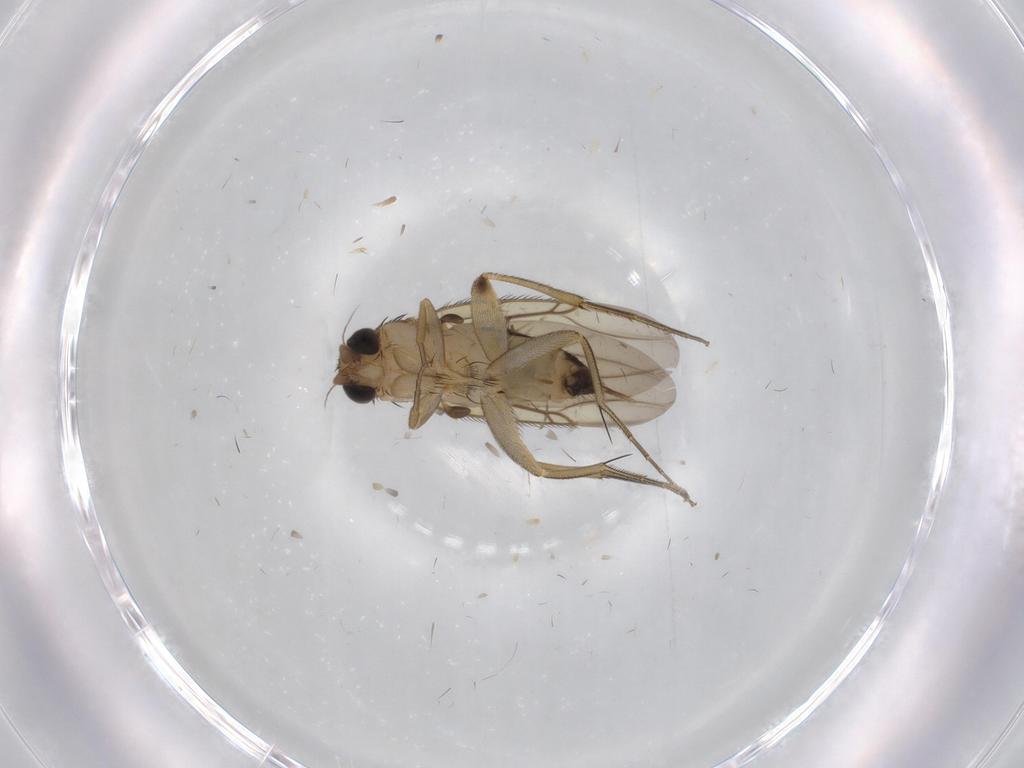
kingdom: Animalia
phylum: Arthropoda
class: Insecta
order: Diptera
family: Phoridae
